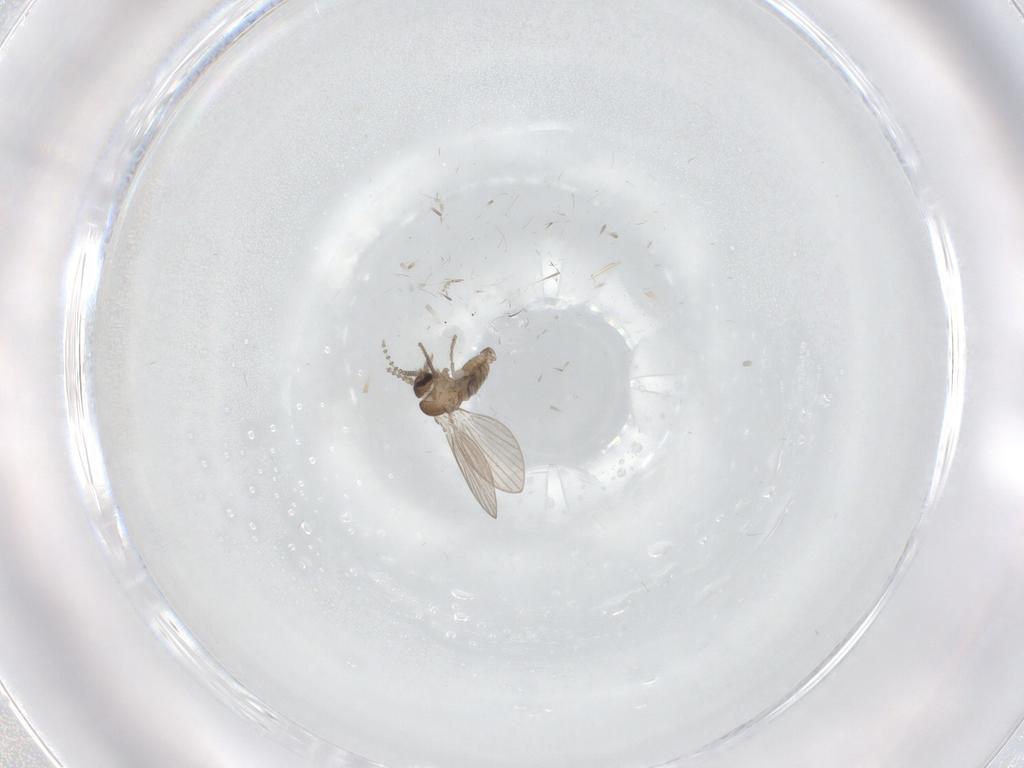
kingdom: Animalia
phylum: Arthropoda
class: Insecta
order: Diptera
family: Psychodidae
